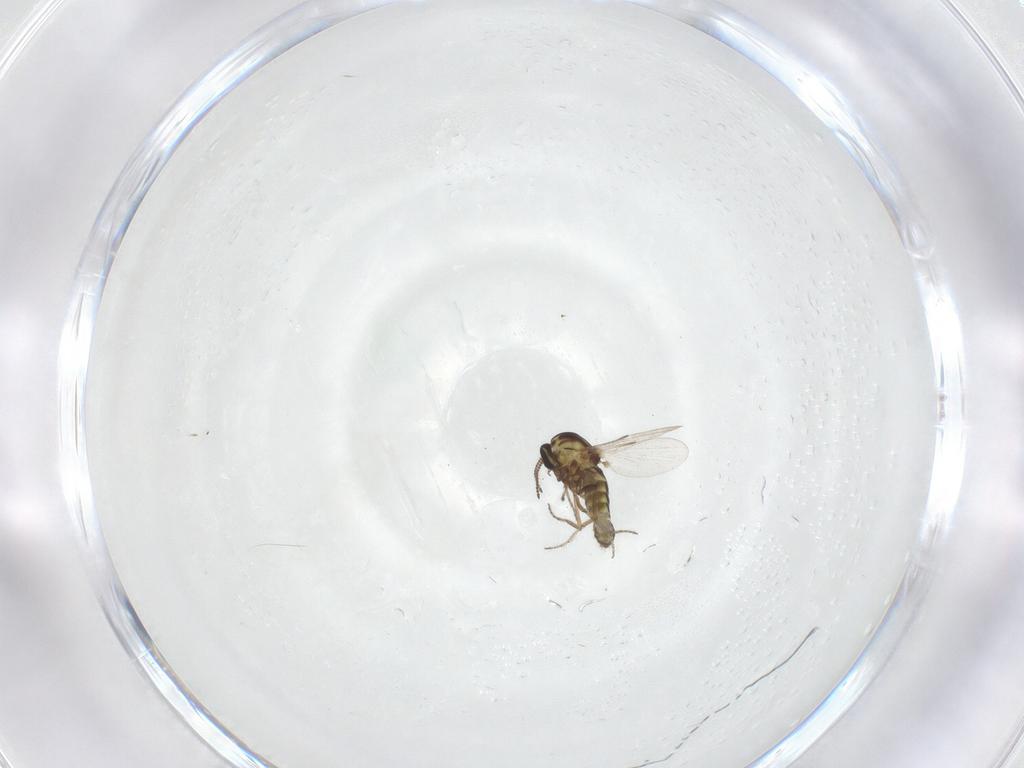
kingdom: Animalia
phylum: Arthropoda
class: Insecta
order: Diptera
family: Ceratopogonidae
